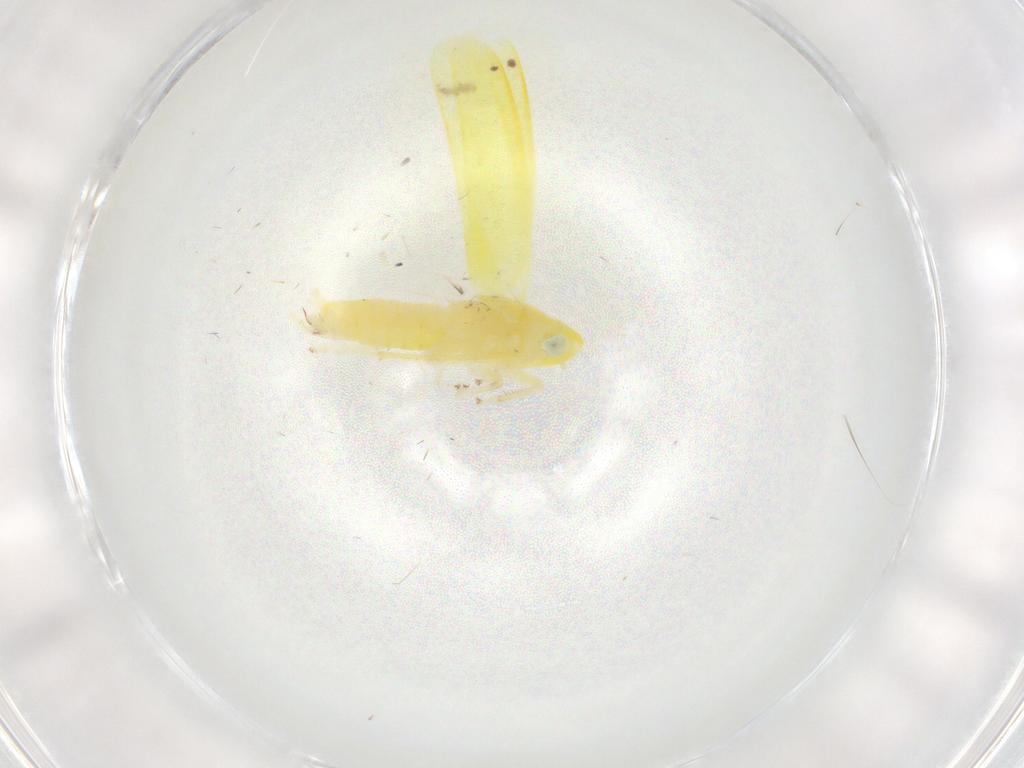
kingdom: Animalia
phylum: Arthropoda
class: Insecta
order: Hemiptera
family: Cicadellidae
